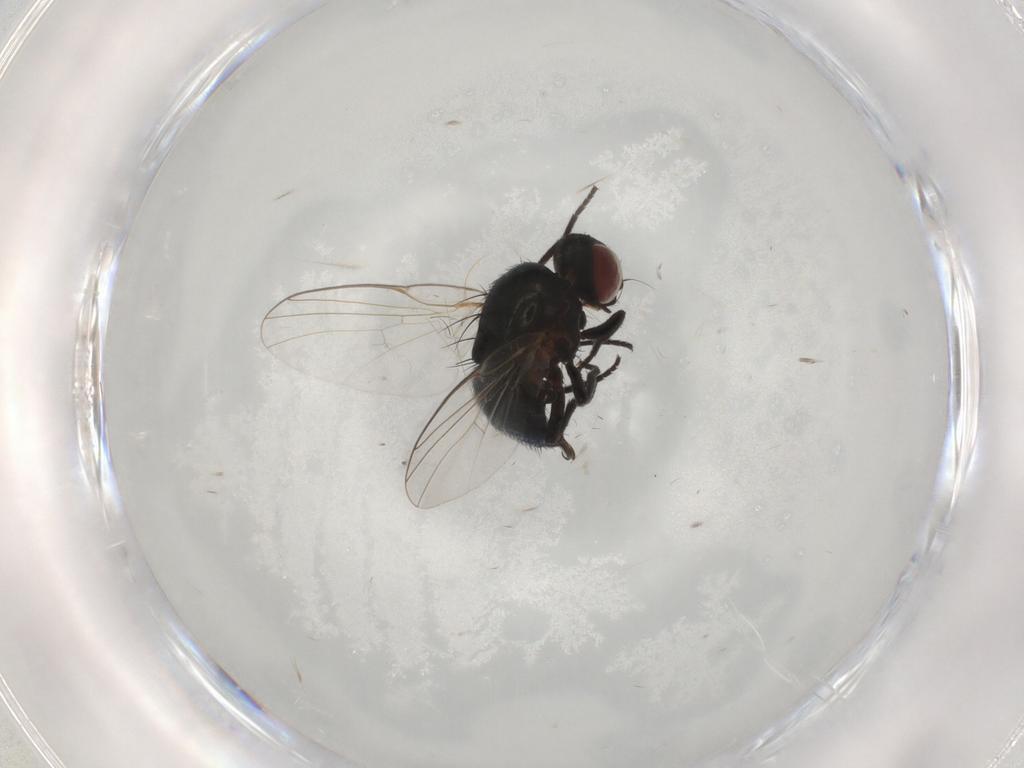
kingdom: Animalia
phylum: Arthropoda
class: Insecta
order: Diptera
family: Agromyzidae
